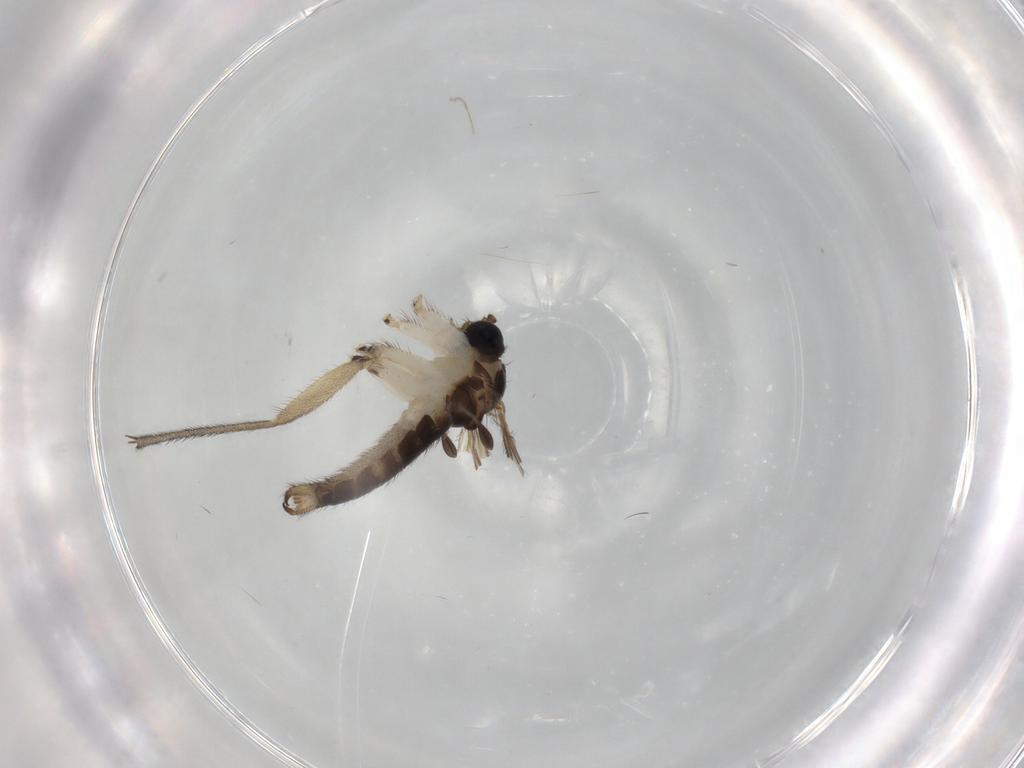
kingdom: Animalia
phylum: Arthropoda
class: Insecta
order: Diptera
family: Sciaridae
